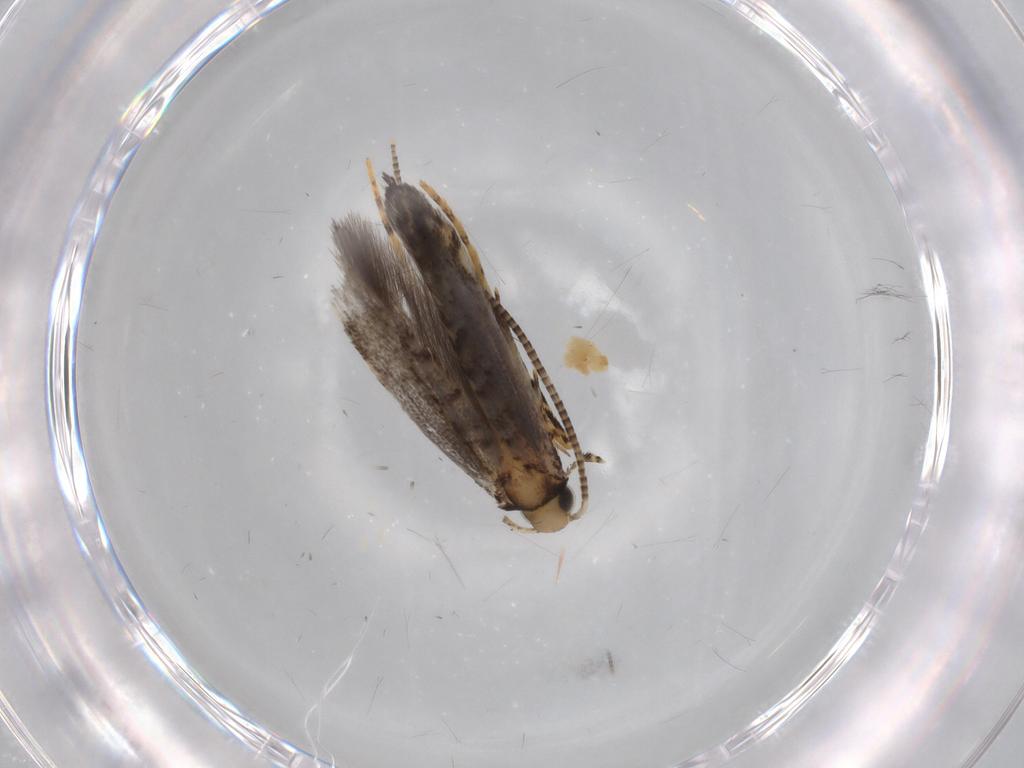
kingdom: Animalia
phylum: Arthropoda
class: Insecta
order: Lepidoptera
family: Gracillariidae
